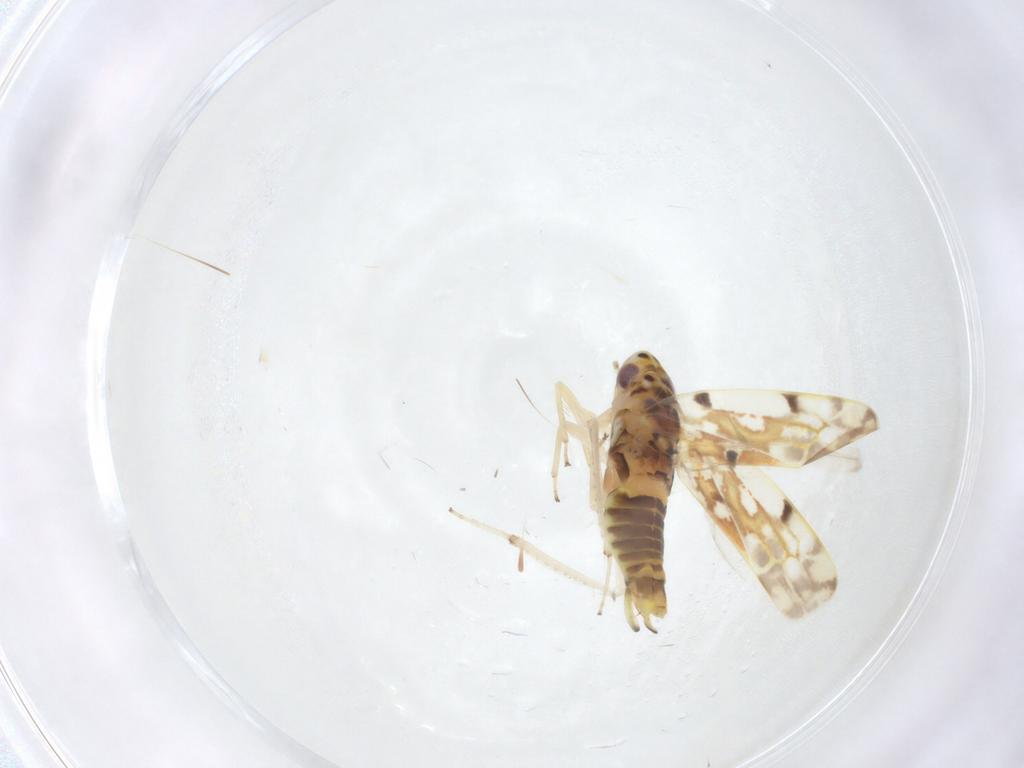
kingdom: Animalia
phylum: Arthropoda
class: Insecta
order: Hemiptera
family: Cicadellidae
